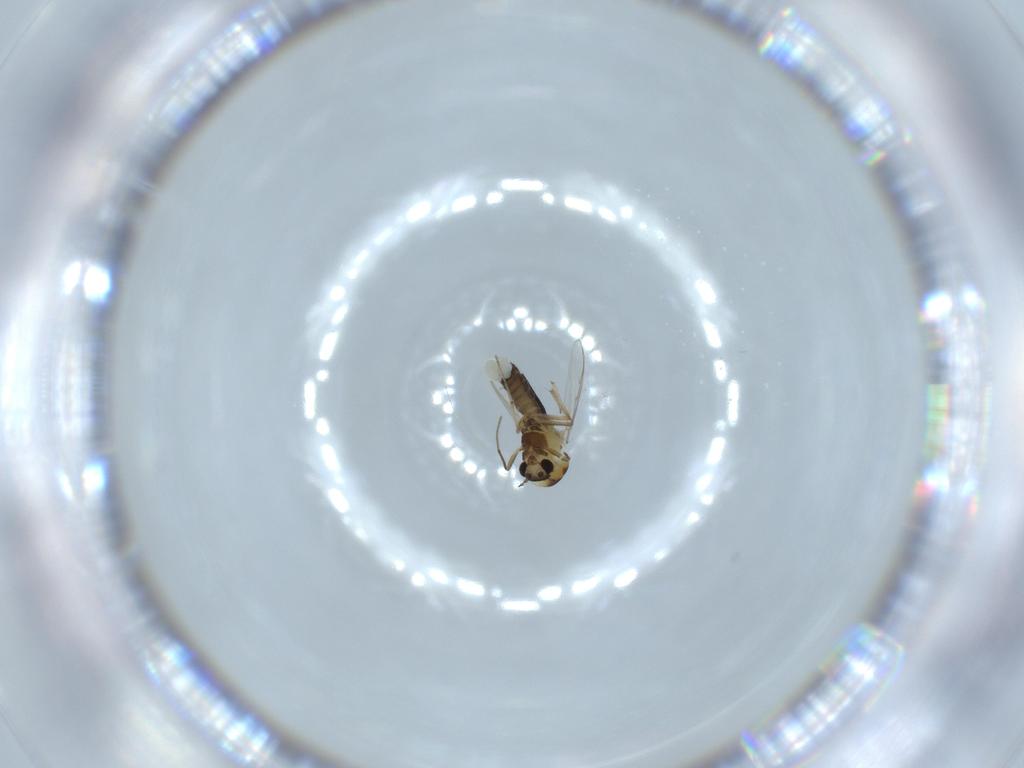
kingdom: Animalia
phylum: Arthropoda
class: Insecta
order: Diptera
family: Chironomidae
